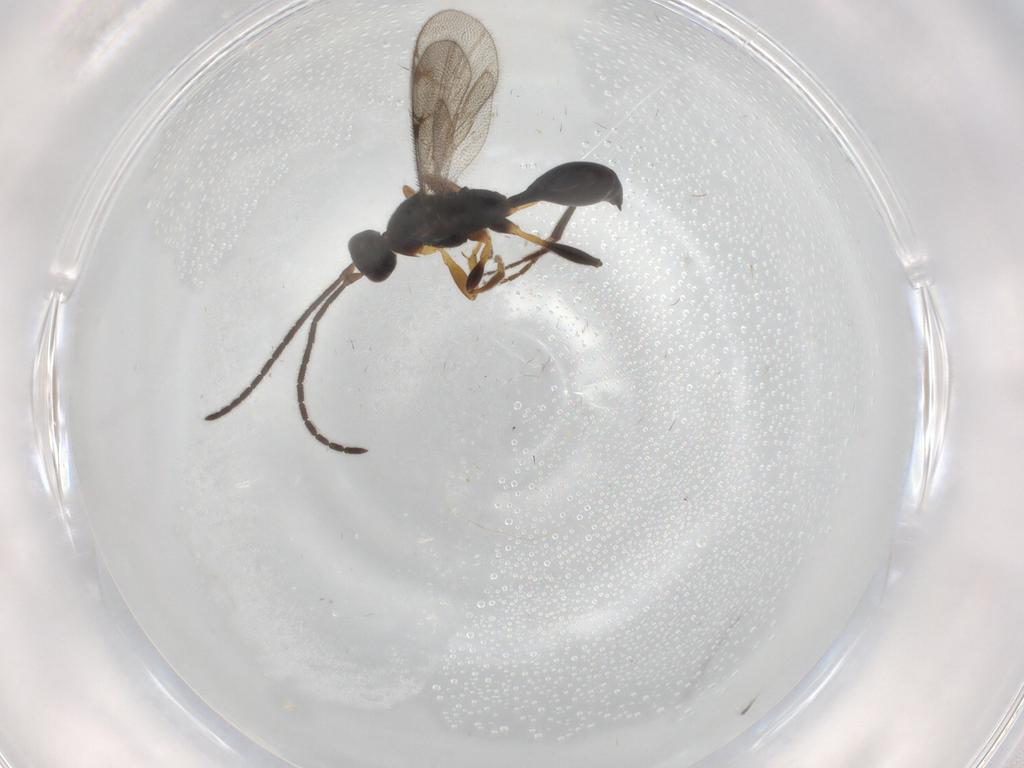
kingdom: Animalia
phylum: Arthropoda
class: Insecta
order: Hymenoptera
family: Proctotrupidae
